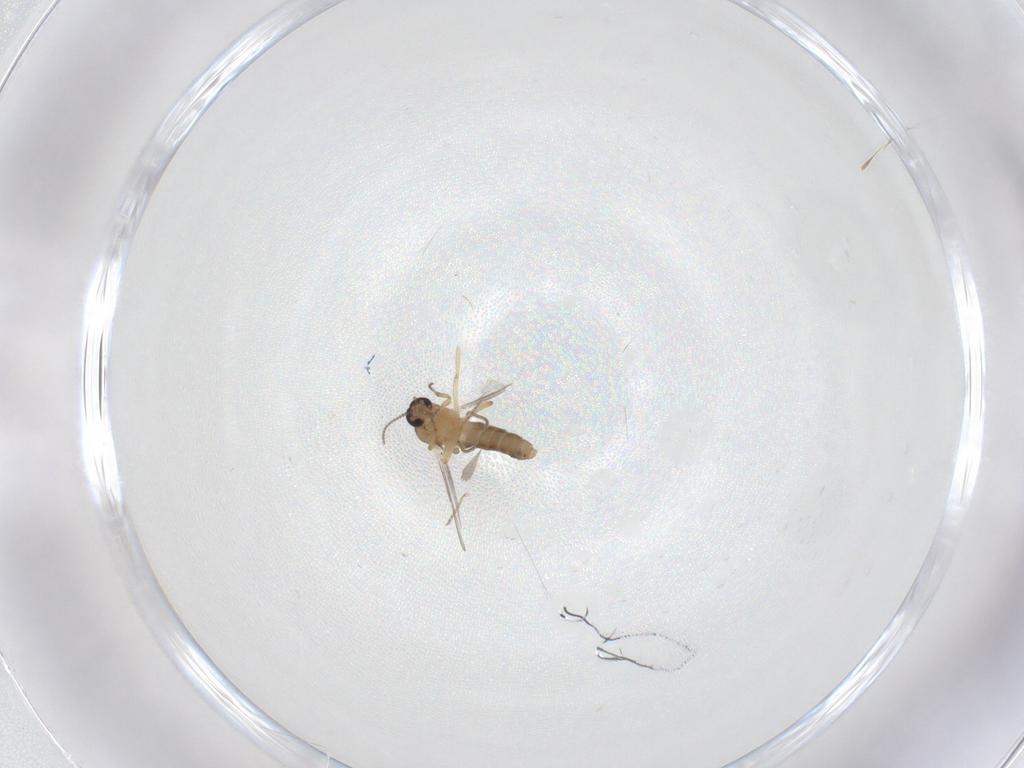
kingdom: Animalia
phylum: Arthropoda
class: Insecta
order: Diptera
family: Ceratopogonidae
